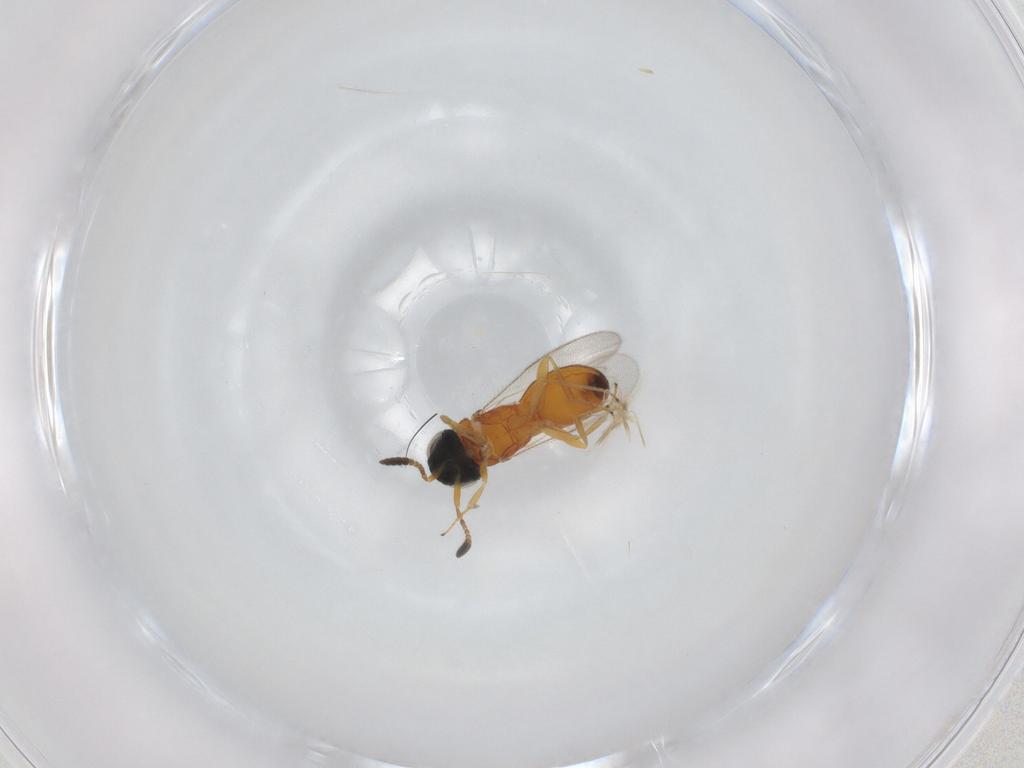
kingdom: Animalia
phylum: Arthropoda
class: Insecta
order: Hymenoptera
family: Scelionidae
